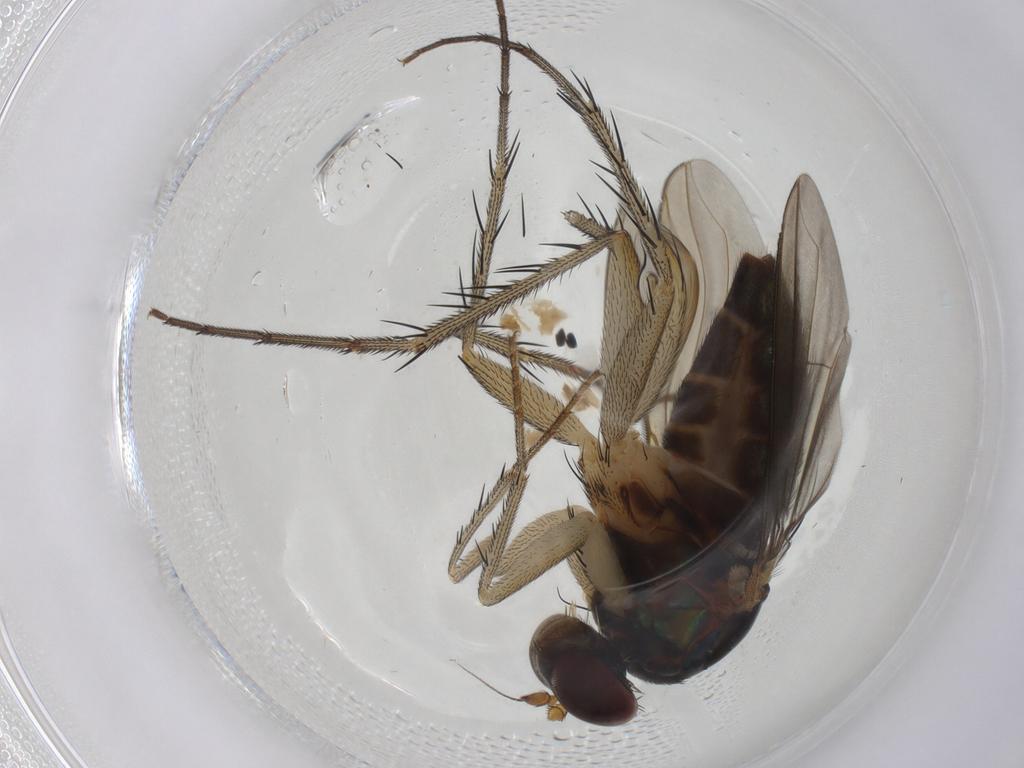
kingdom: Animalia
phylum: Arthropoda
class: Insecta
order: Diptera
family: Dolichopodidae
